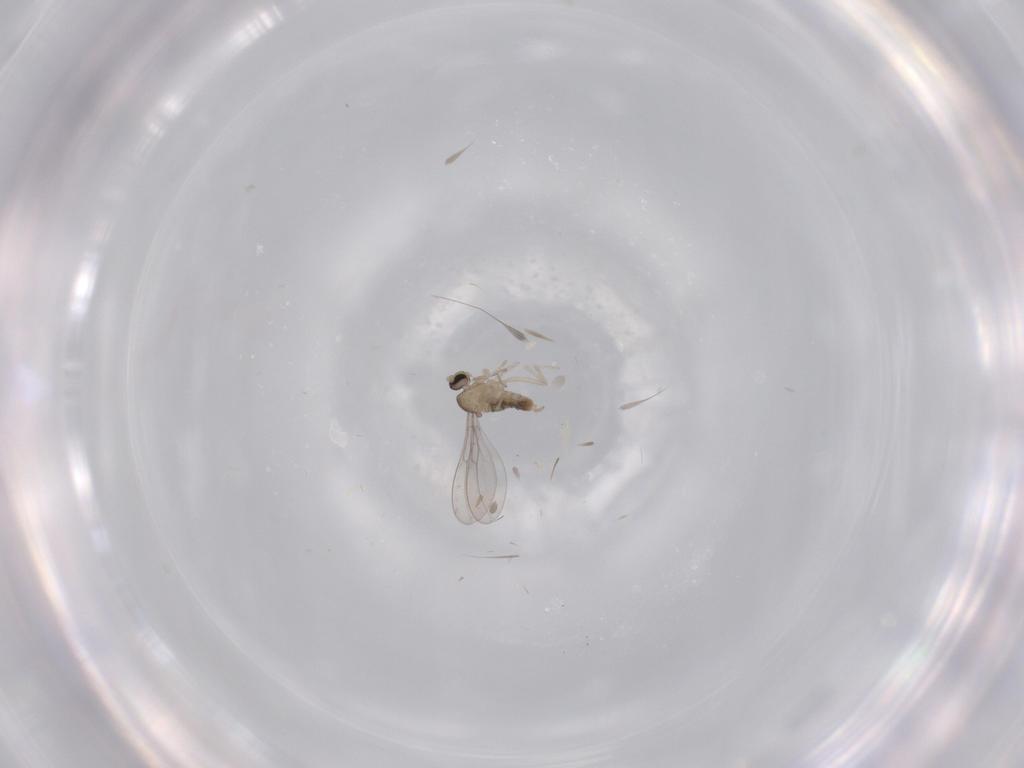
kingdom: Animalia
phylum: Arthropoda
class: Insecta
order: Diptera
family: Cecidomyiidae
